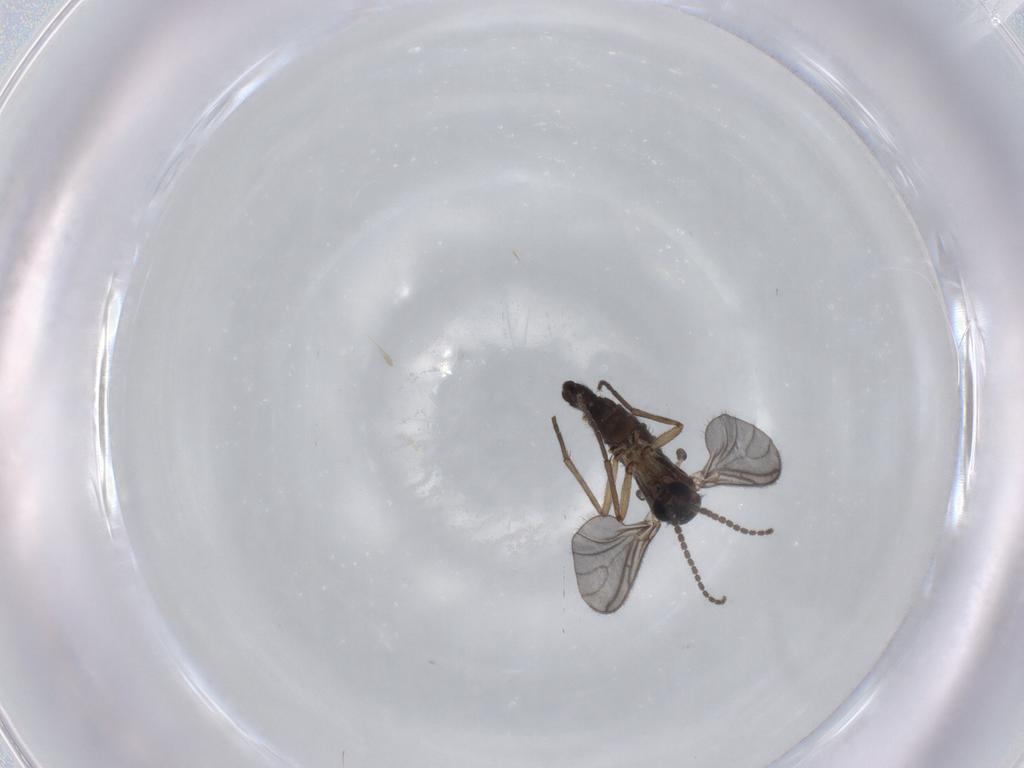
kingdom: Animalia
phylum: Arthropoda
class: Insecta
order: Diptera
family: Sciaridae
